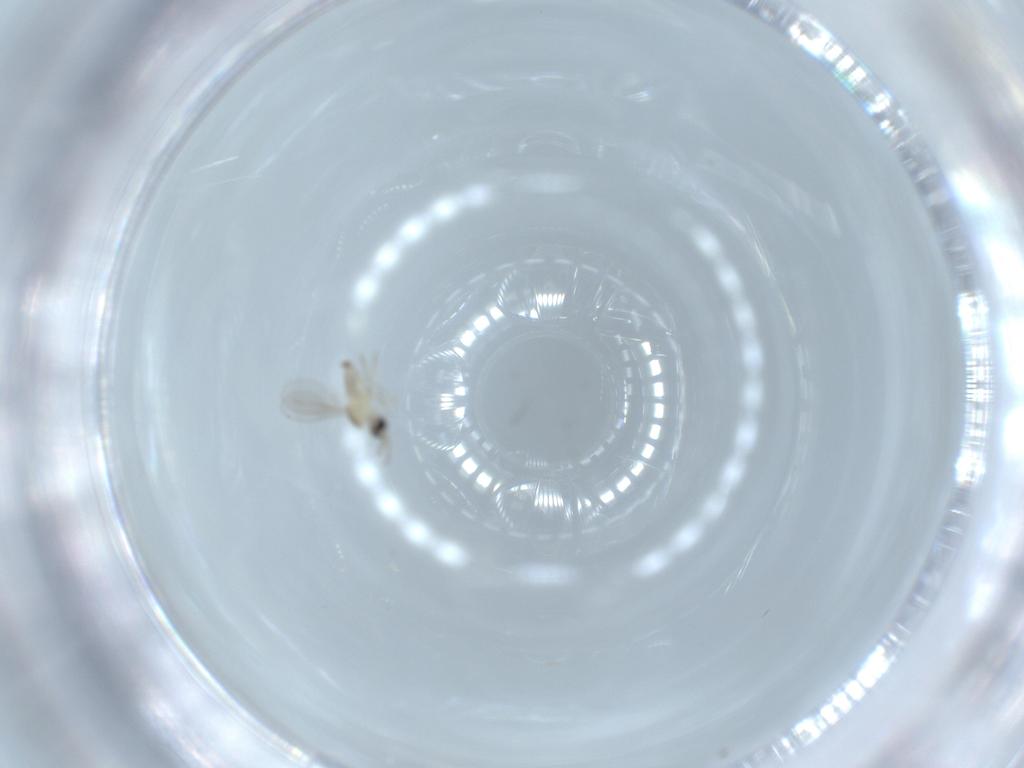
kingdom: Animalia
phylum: Arthropoda
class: Insecta
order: Diptera
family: Cecidomyiidae
